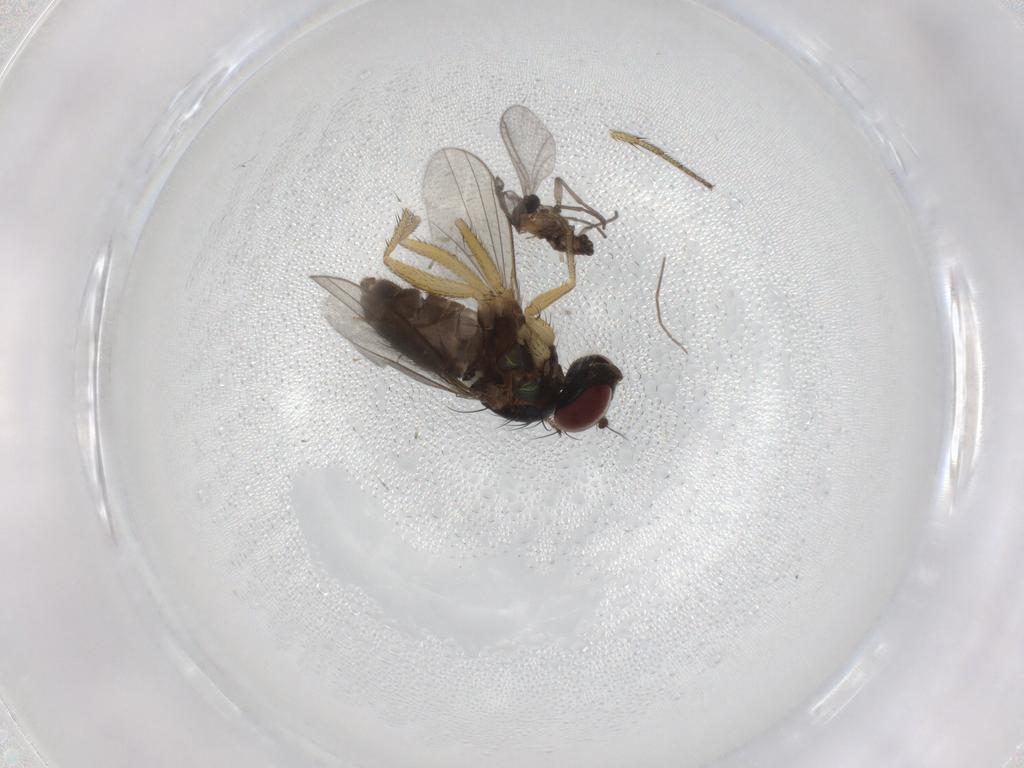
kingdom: Animalia
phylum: Arthropoda
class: Insecta
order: Diptera
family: Sciaridae
